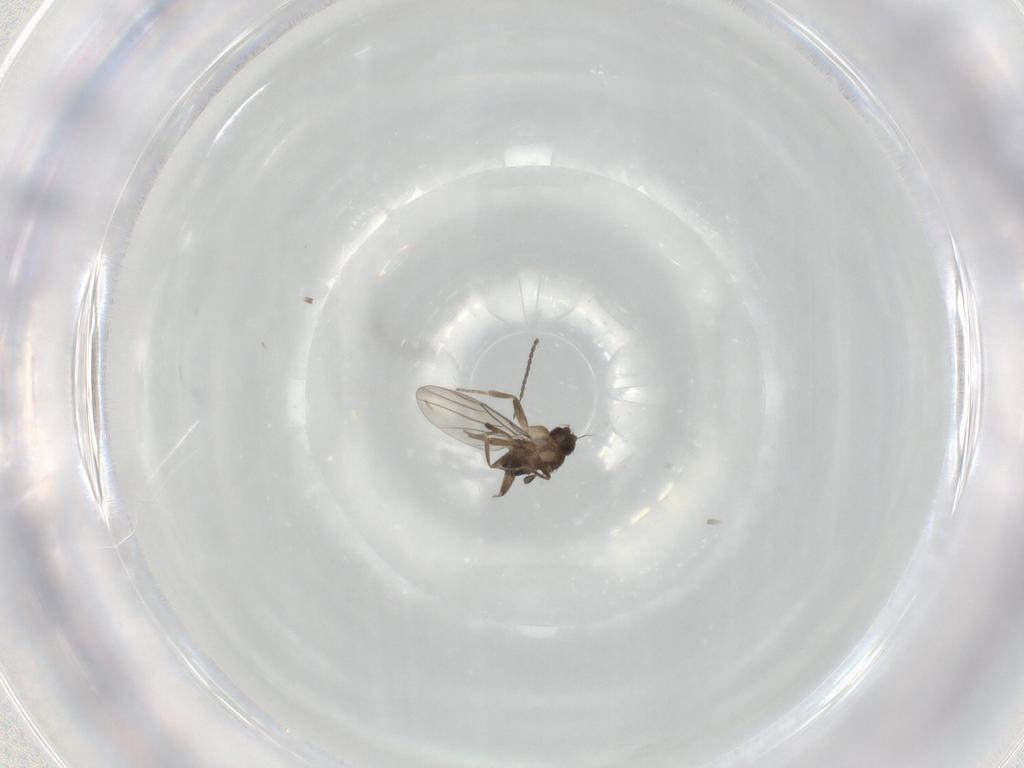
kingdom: Animalia
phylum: Arthropoda
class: Insecta
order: Diptera
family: Phoridae
